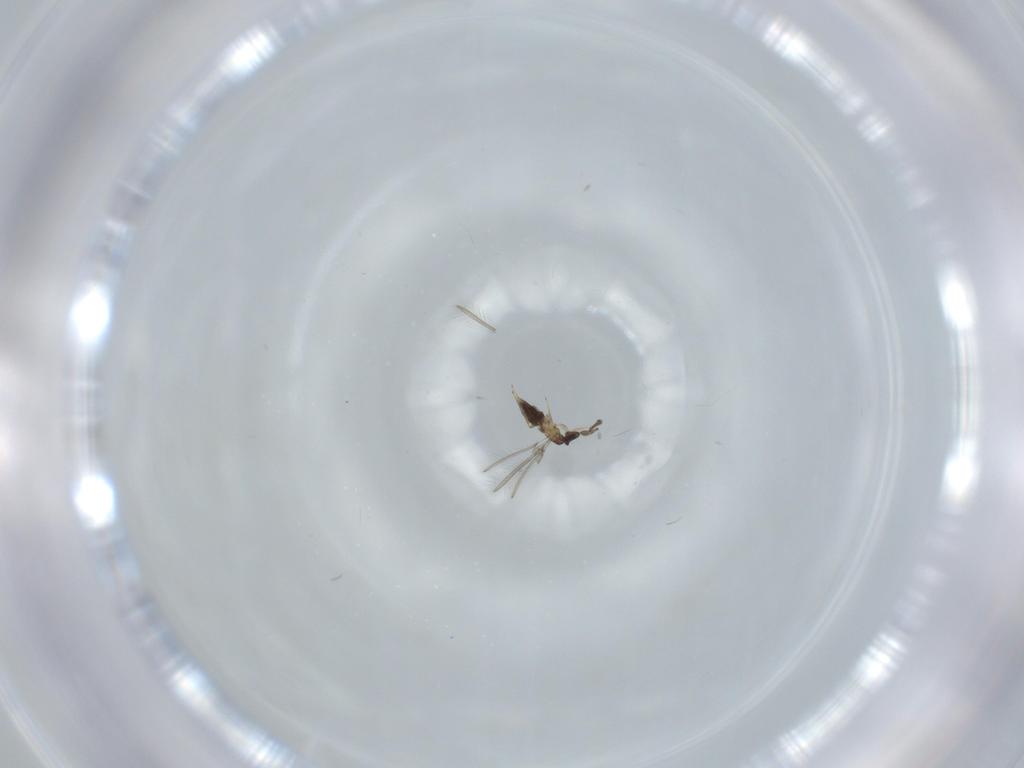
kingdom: Animalia
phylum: Arthropoda
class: Insecta
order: Hymenoptera
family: Mymaridae
